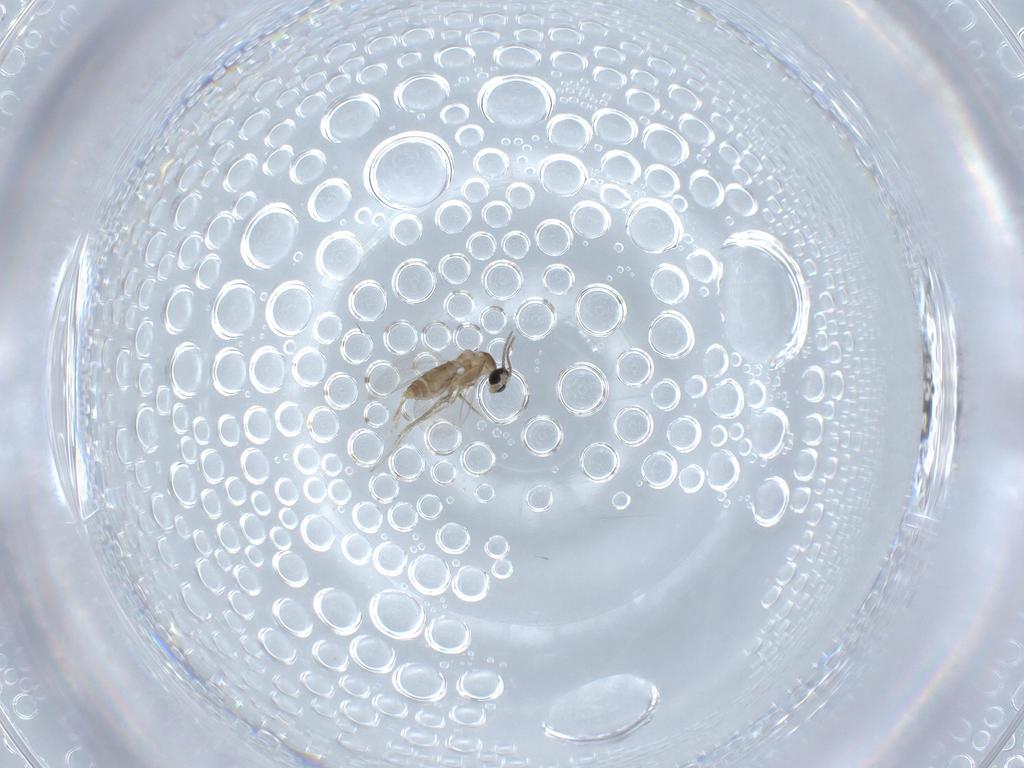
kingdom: Animalia
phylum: Arthropoda
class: Insecta
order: Diptera
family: Cecidomyiidae
